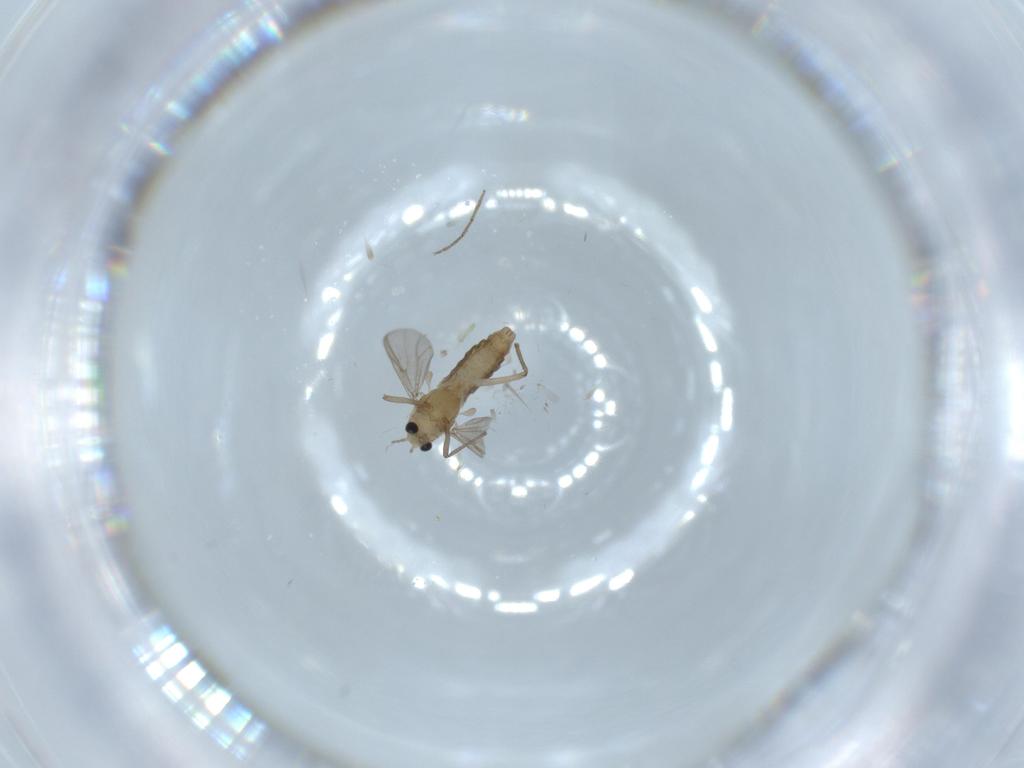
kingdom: Animalia
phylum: Arthropoda
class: Insecta
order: Diptera
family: Chironomidae
